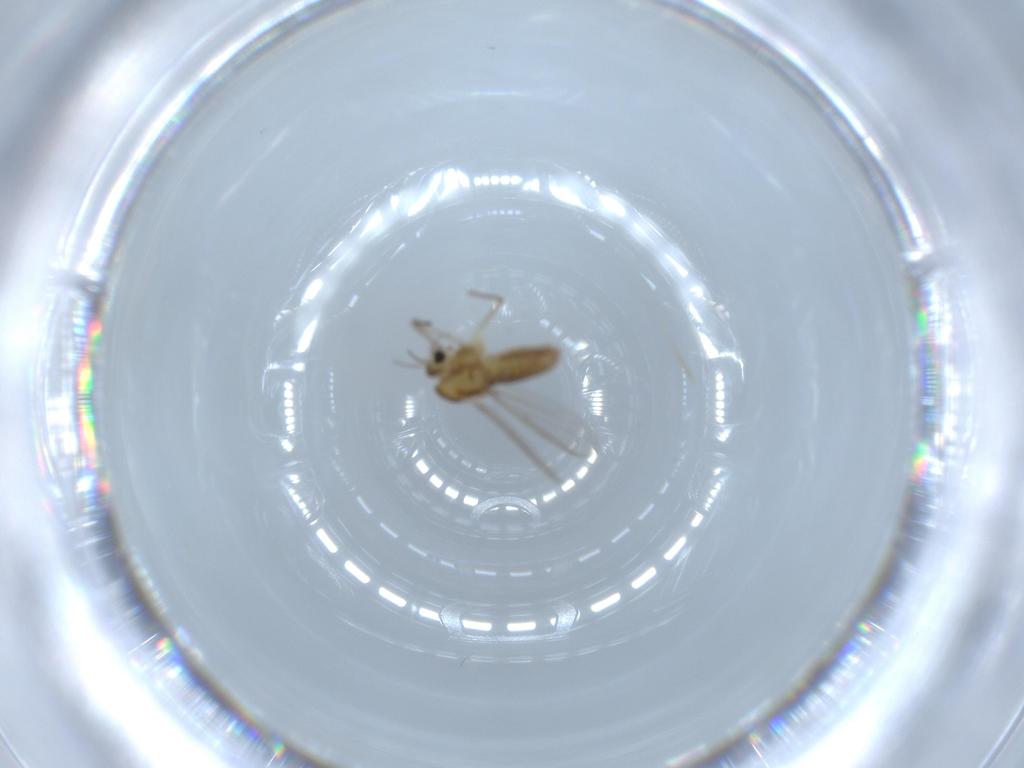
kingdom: Animalia
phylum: Arthropoda
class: Insecta
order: Diptera
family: Chironomidae
